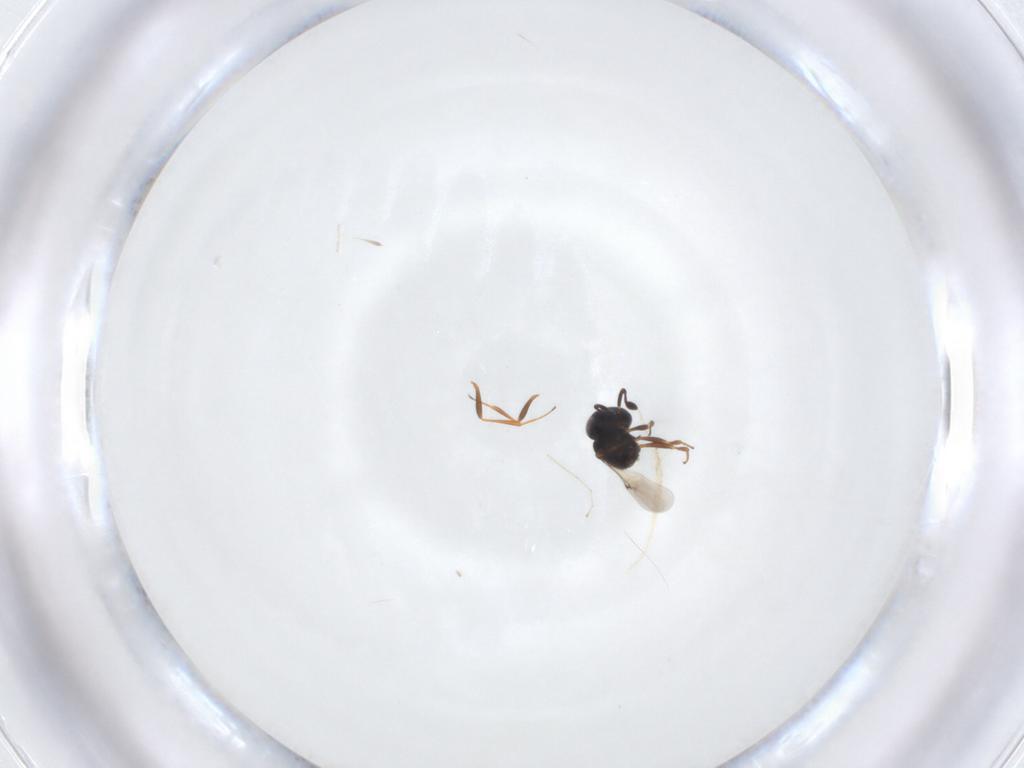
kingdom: Animalia
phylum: Arthropoda
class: Insecta
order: Hymenoptera
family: Scelionidae
